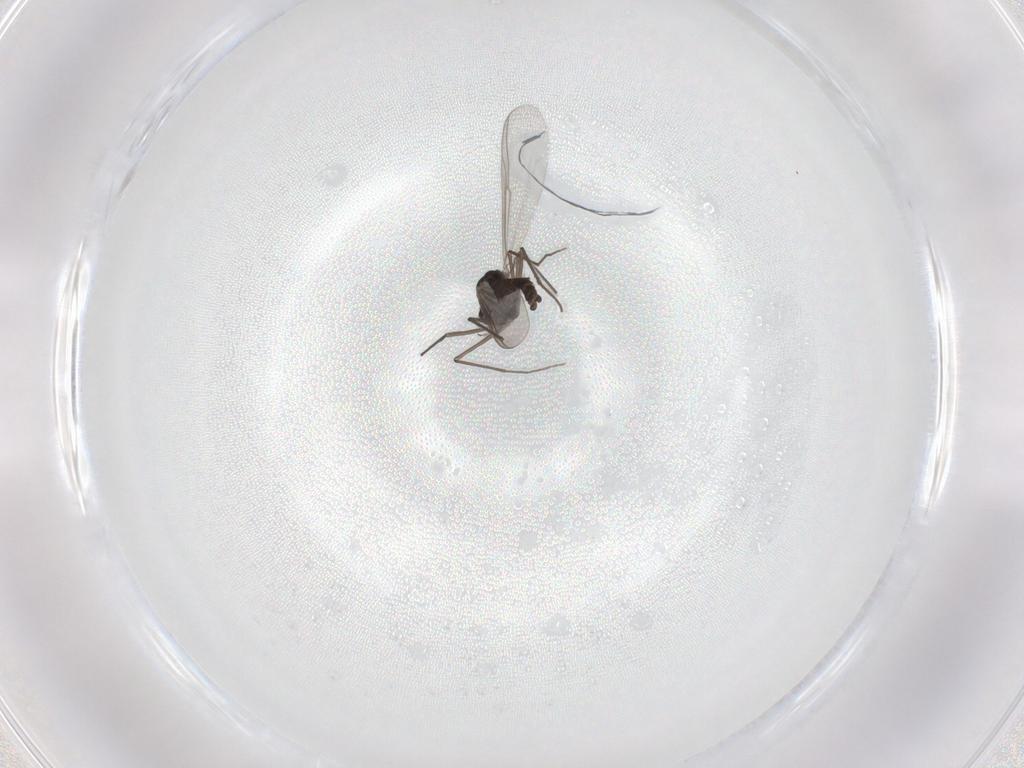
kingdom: Animalia
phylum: Arthropoda
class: Insecta
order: Diptera
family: Chironomidae
